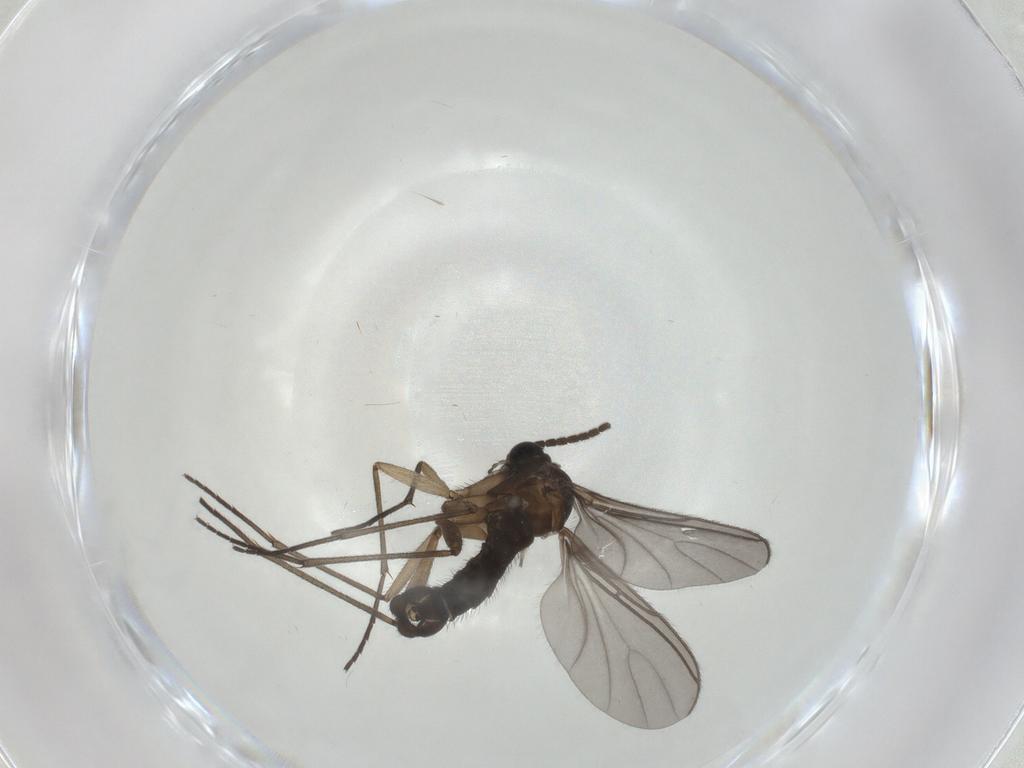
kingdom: Animalia
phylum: Arthropoda
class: Insecta
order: Diptera
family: Sciaridae
